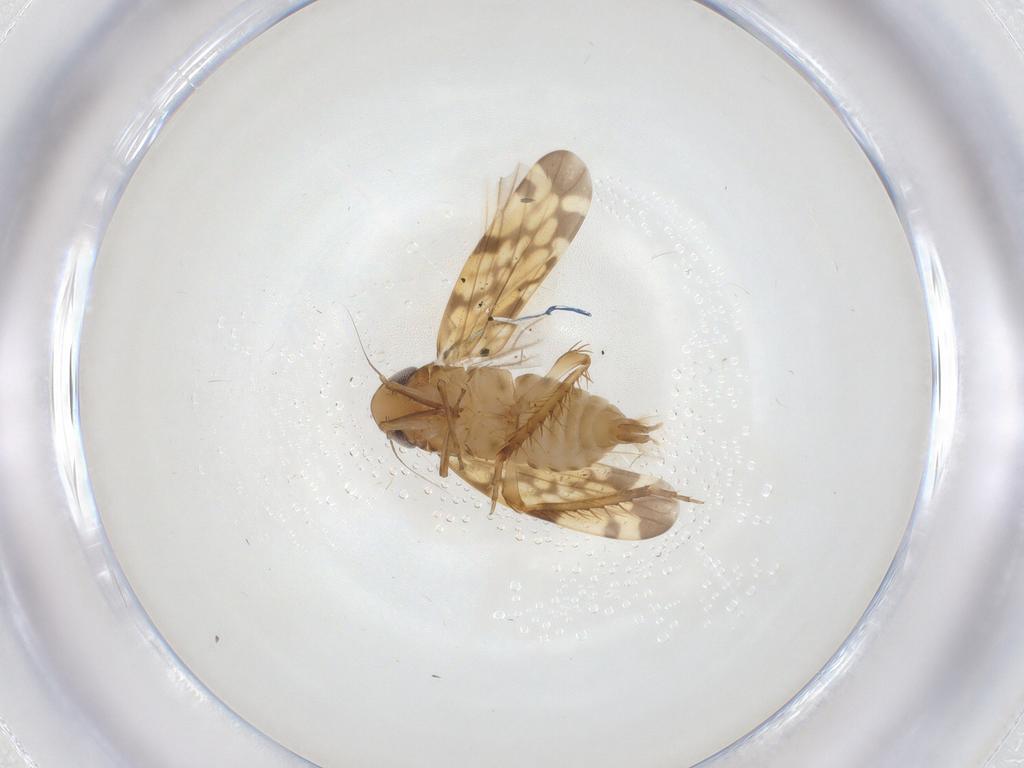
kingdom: Animalia
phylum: Arthropoda
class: Insecta
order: Hemiptera
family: Cicadellidae
